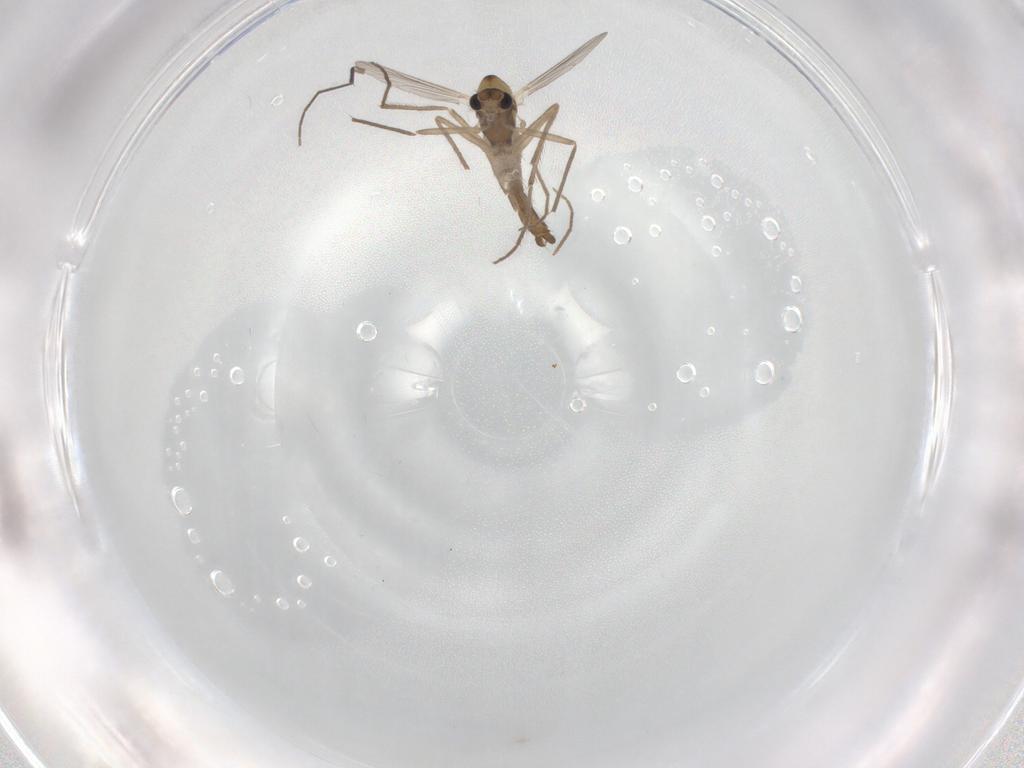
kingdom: Animalia
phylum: Arthropoda
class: Insecta
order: Diptera
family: Chironomidae
